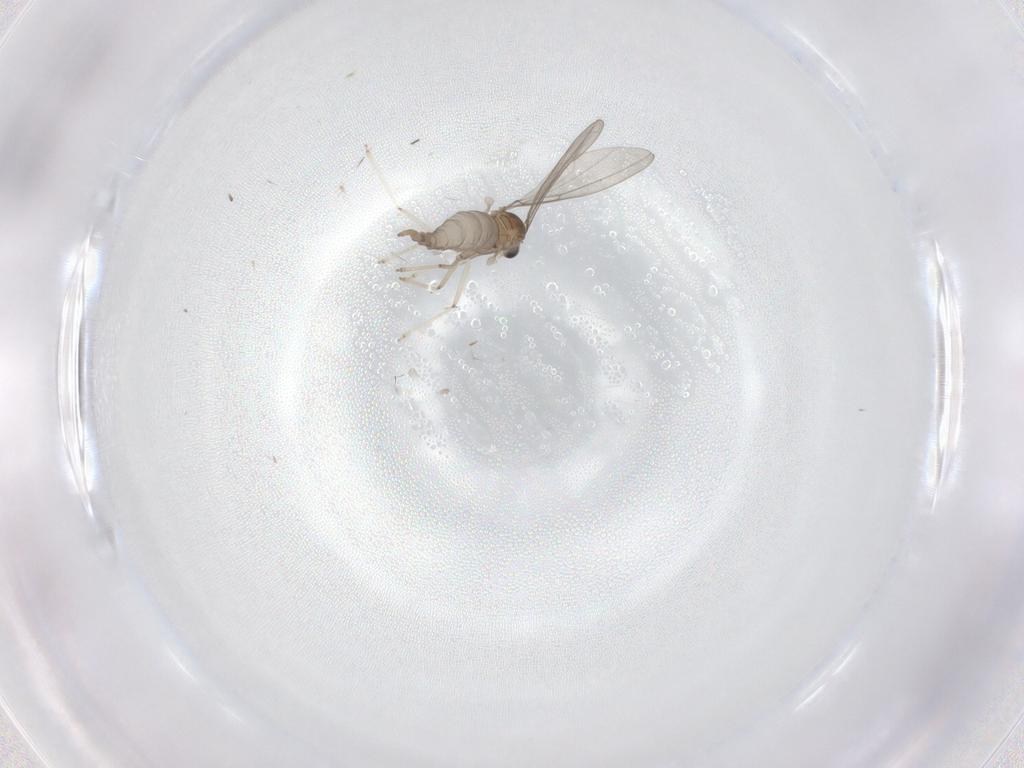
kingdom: Animalia
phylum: Arthropoda
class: Insecta
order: Diptera
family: Cecidomyiidae
